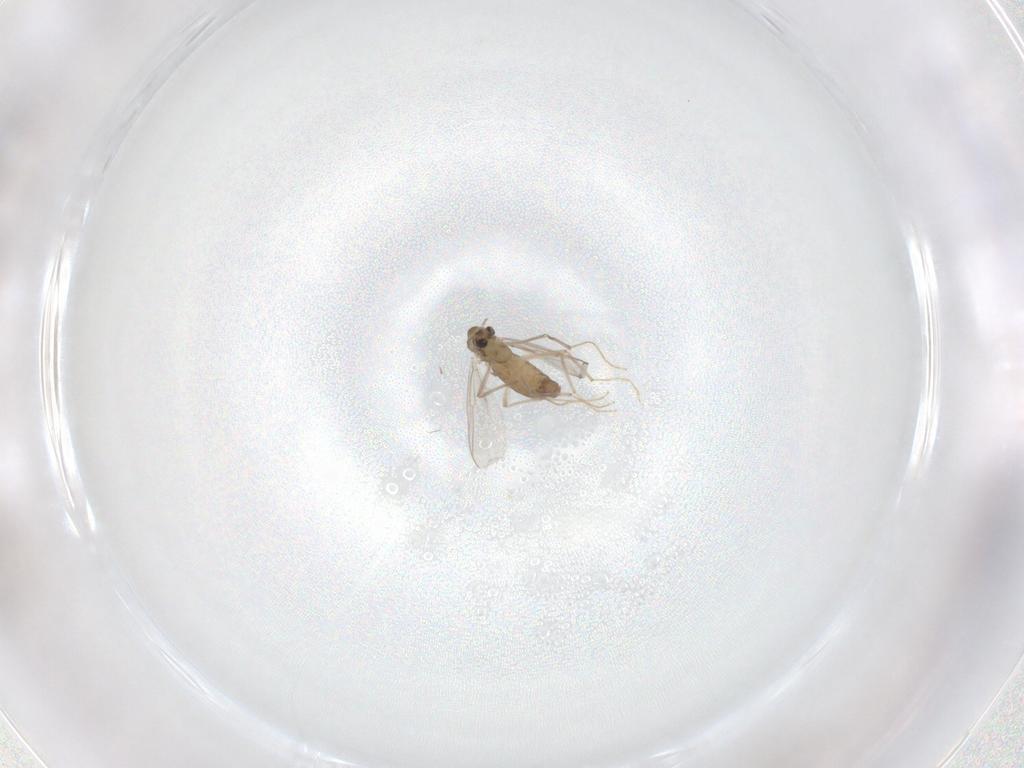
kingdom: Animalia
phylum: Arthropoda
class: Insecta
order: Diptera
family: Chironomidae
